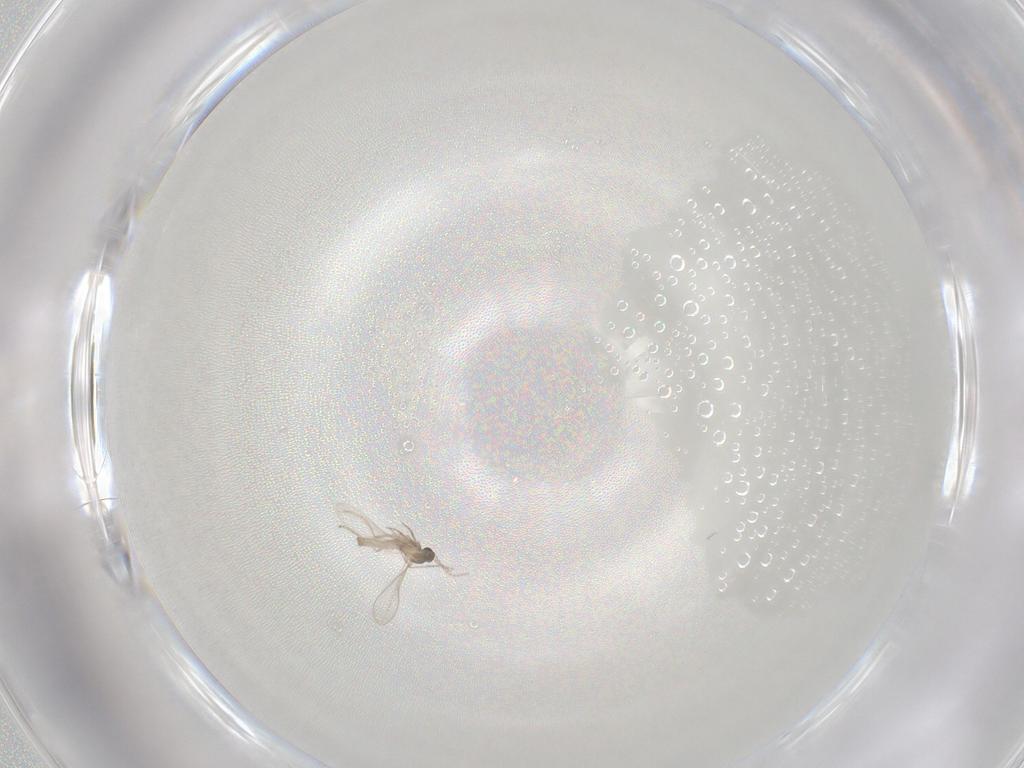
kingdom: Animalia
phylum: Arthropoda
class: Insecta
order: Diptera
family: Cecidomyiidae
